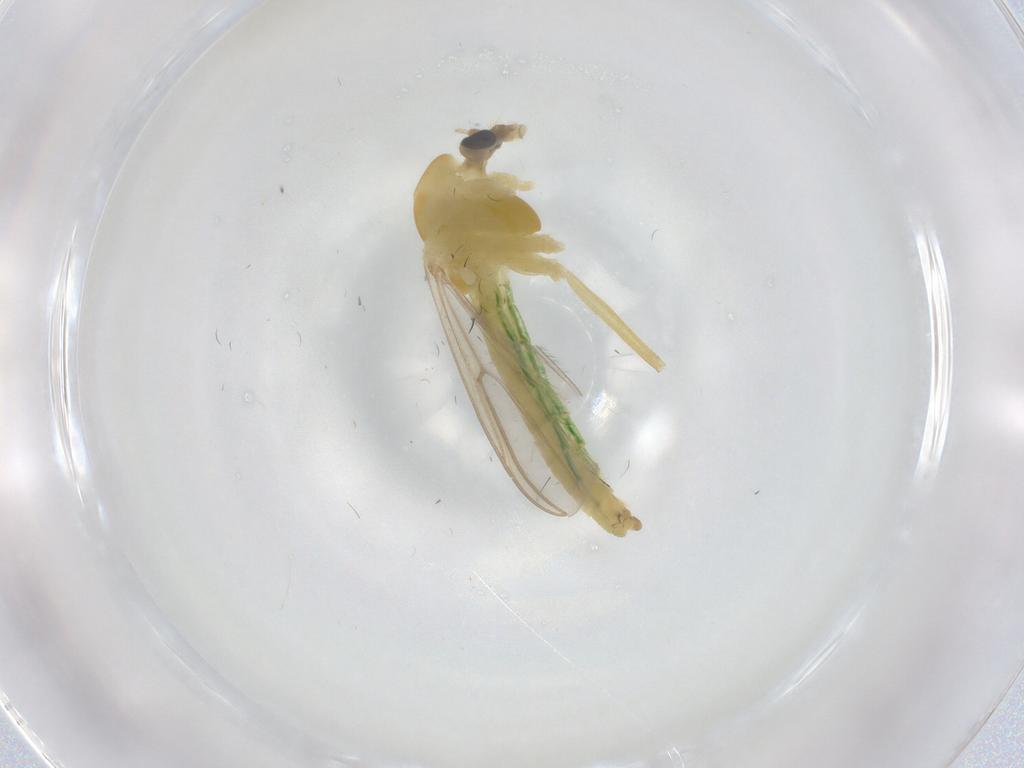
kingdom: Animalia
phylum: Arthropoda
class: Insecta
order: Diptera
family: Chironomidae
